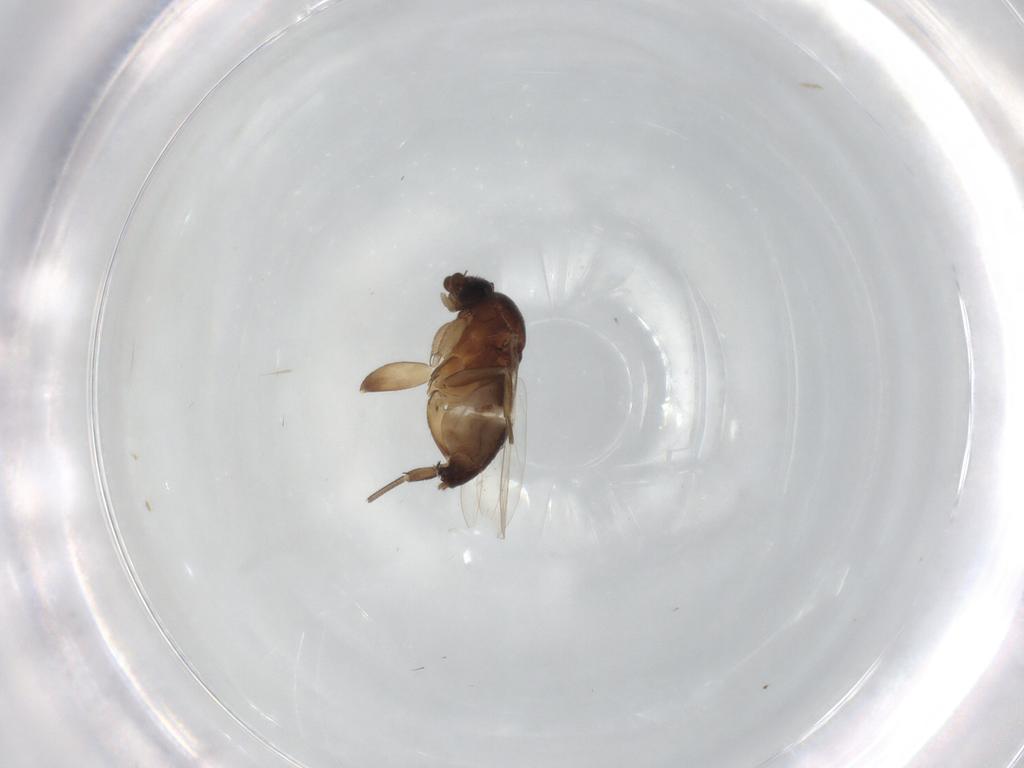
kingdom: Animalia
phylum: Arthropoda
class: Insecta
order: Diptera
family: Phoridae
